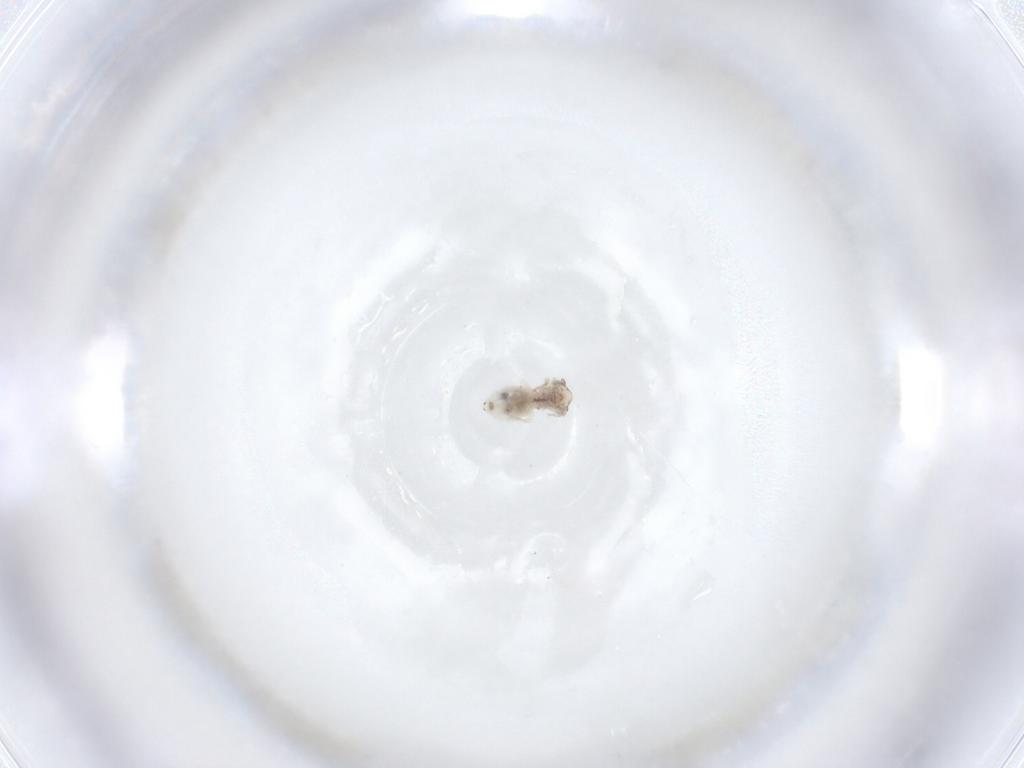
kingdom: Animalia
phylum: Arthropoda
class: Insecta
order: Psocodea
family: Lepidopsocidae
